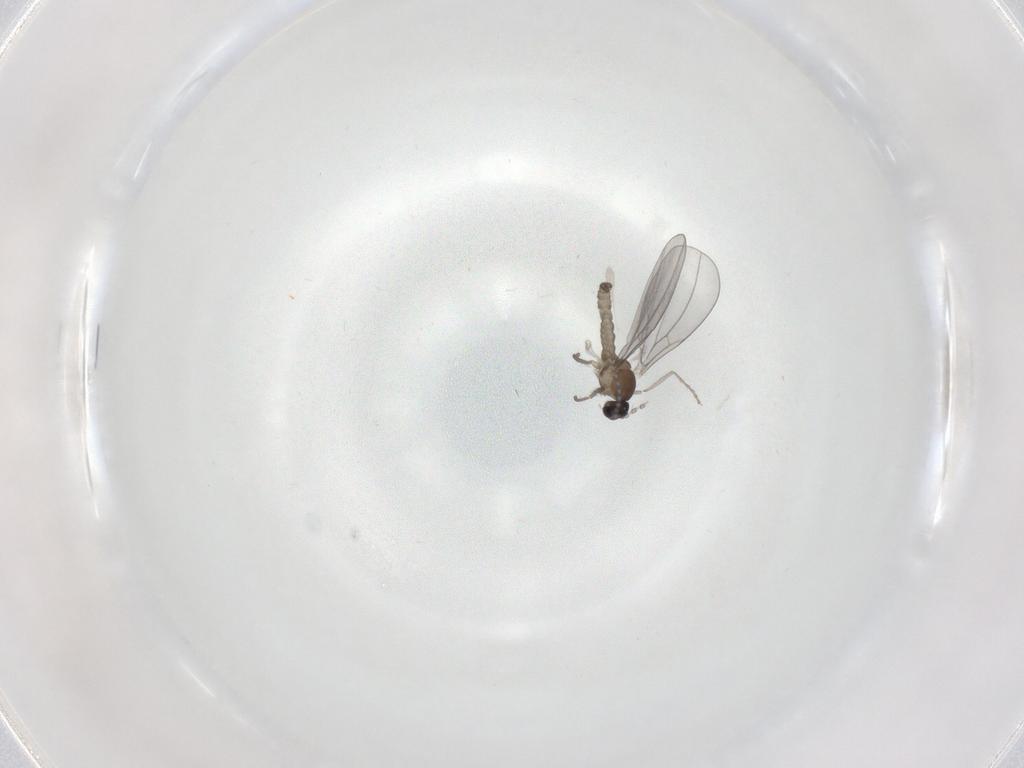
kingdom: Animalia
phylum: Arthropoda
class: Insecta
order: Diptera
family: Cecidomyiidae
